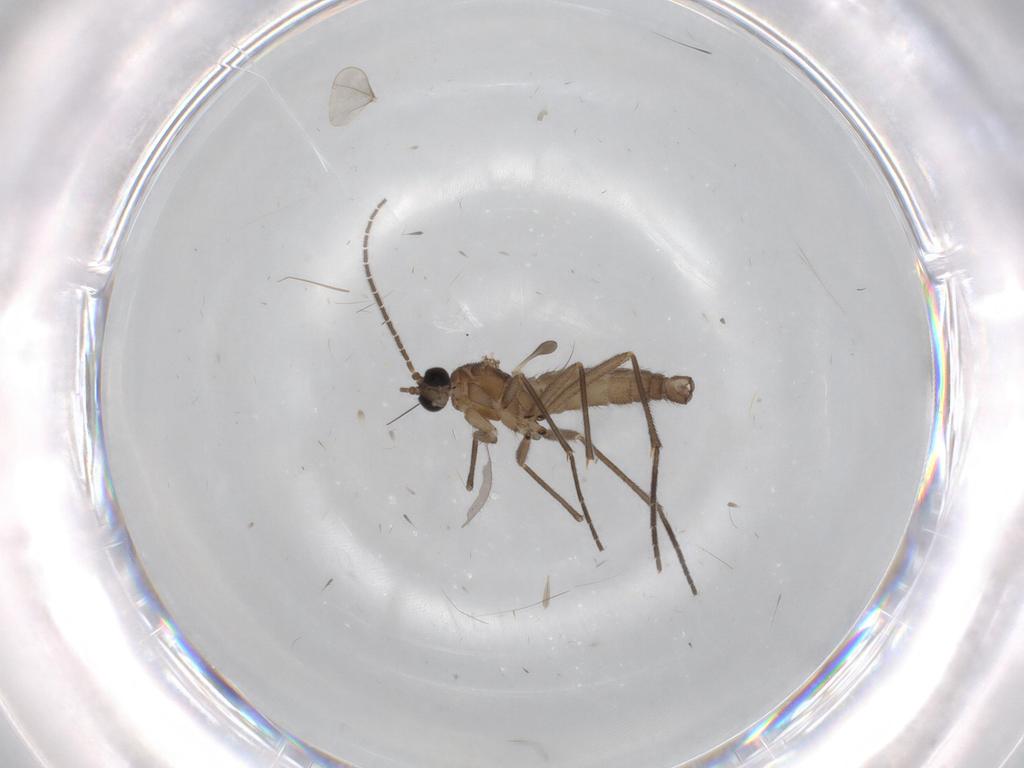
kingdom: Animalia
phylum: Arthropoda
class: Insecta
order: Diptera
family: Sciaridae
